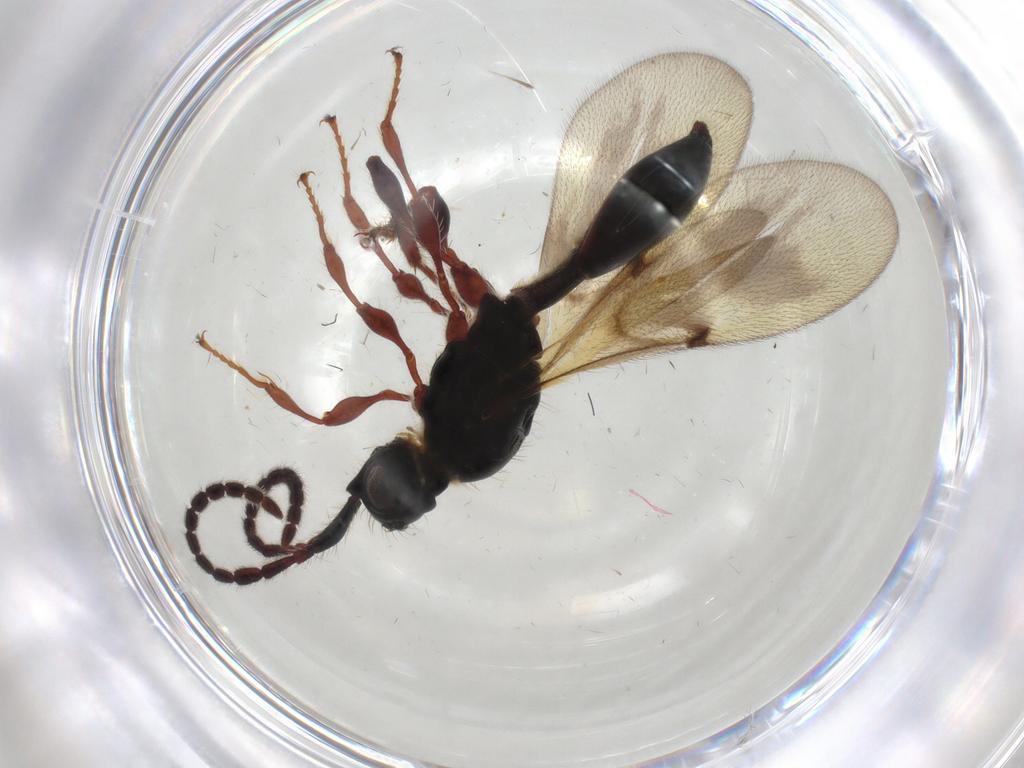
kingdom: Animalia
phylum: Arthropoda
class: Insecta
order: Hymenoptera
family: Diapriidae
